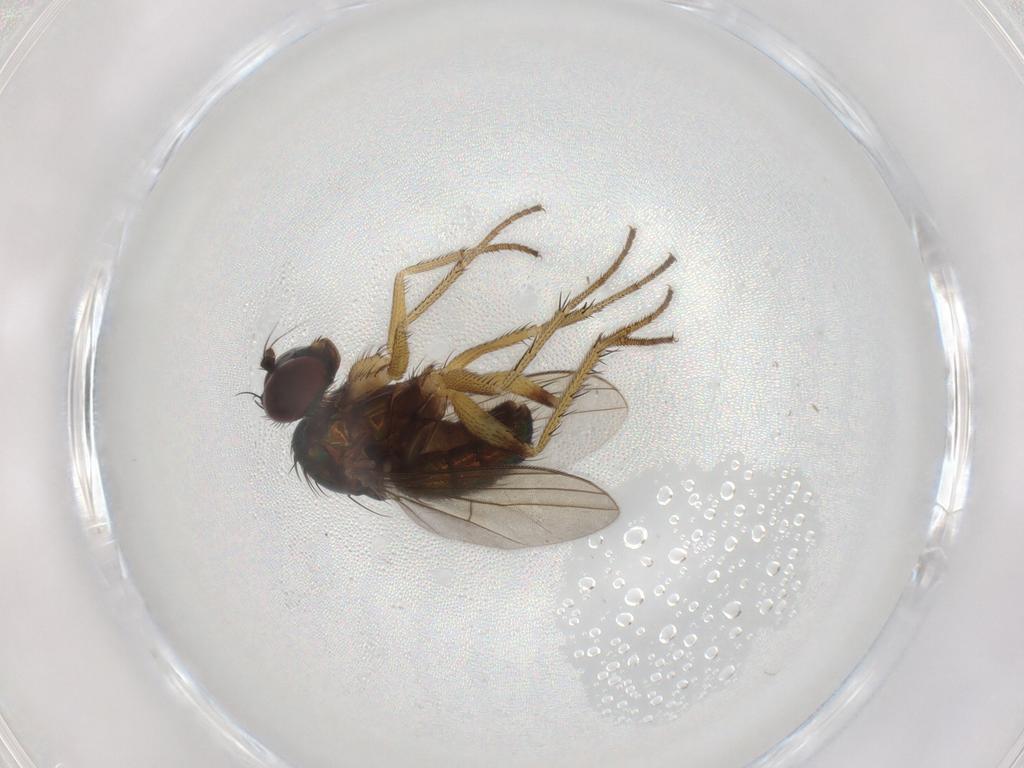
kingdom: Animalia
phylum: Arthropoda
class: Insecta
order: Diptera
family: Dolichopodidae
